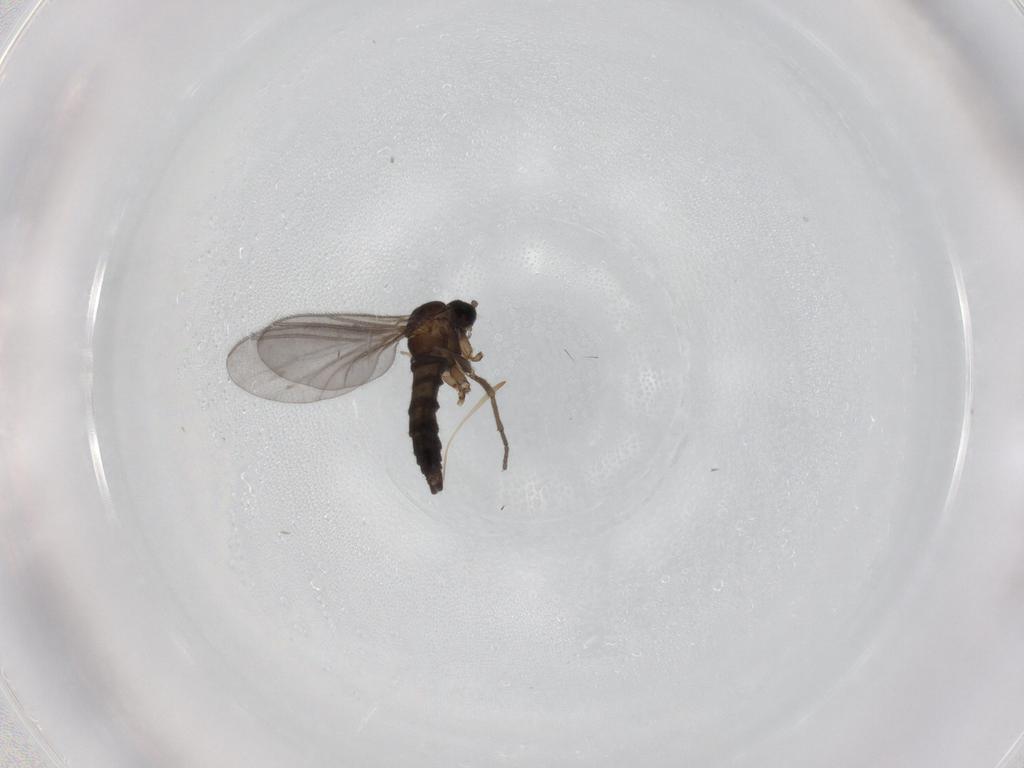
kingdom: Animalia
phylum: Arthropoda
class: Insecta
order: Diptera
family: Sciaridae
